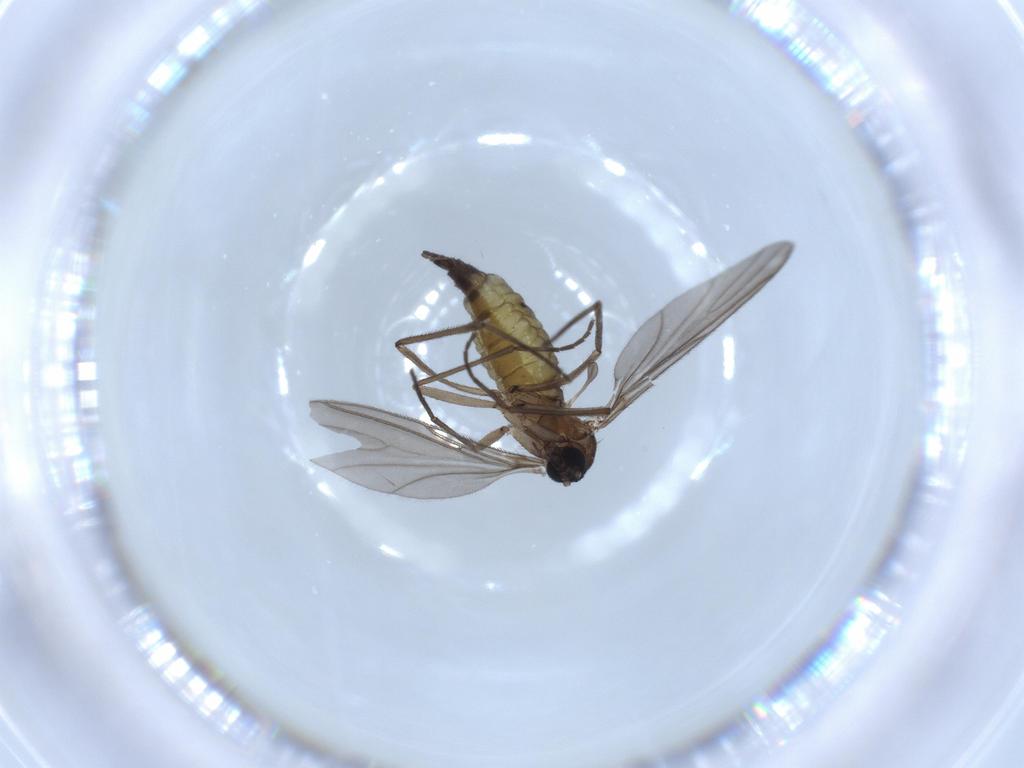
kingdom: Animalia
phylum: Arthropoda
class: Insecta
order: Diptera
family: Sciaridae
